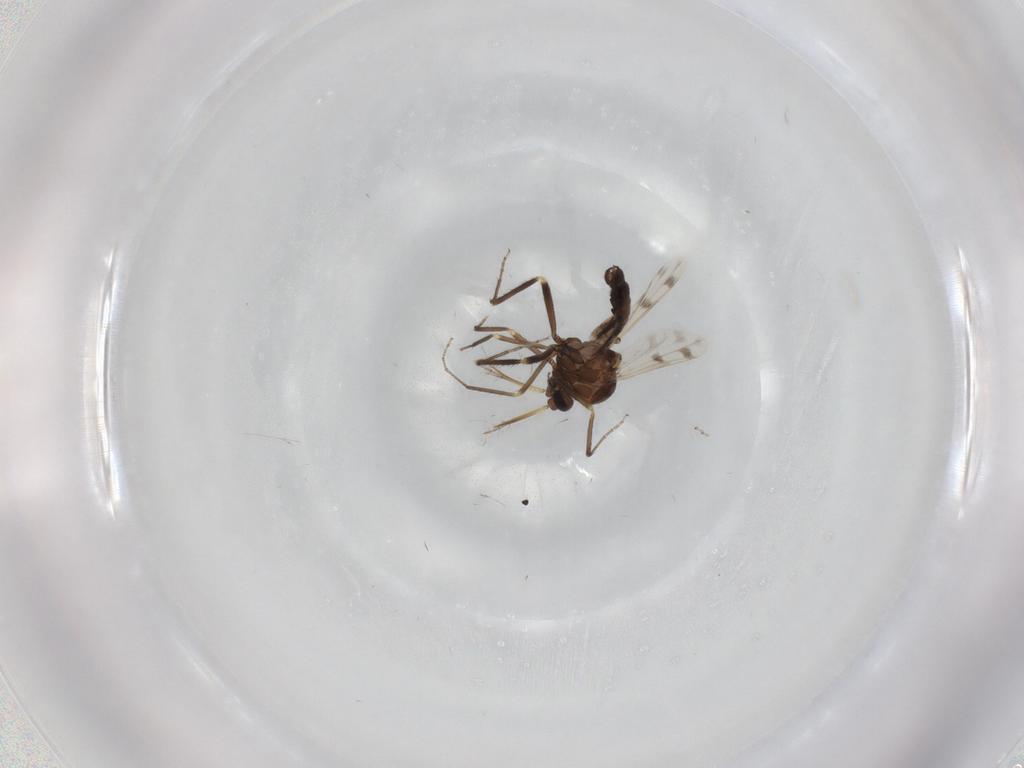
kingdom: Animalia
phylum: Arthropoda
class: Insecta
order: Diptera
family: Ceratopogonidae
